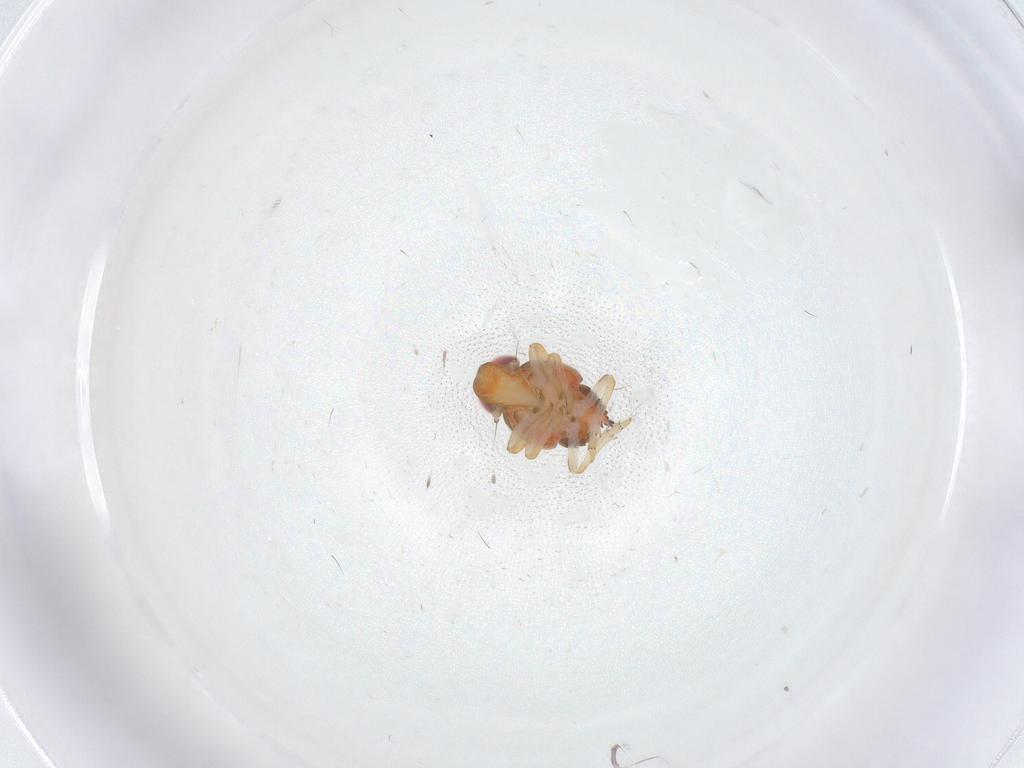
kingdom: Animalia
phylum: Arthropoda
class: Insecta
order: Hemiptera
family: Issidae
